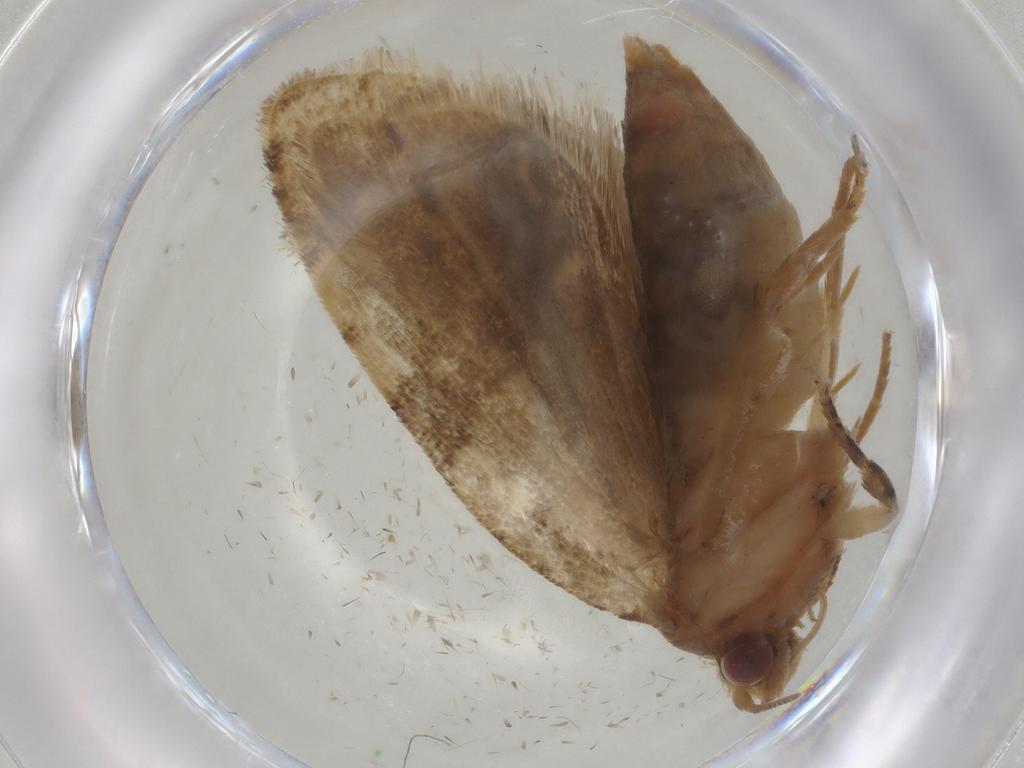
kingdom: Animalia
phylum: Arthropoda
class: Insecta
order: Lepidoptera
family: Tortricidae
